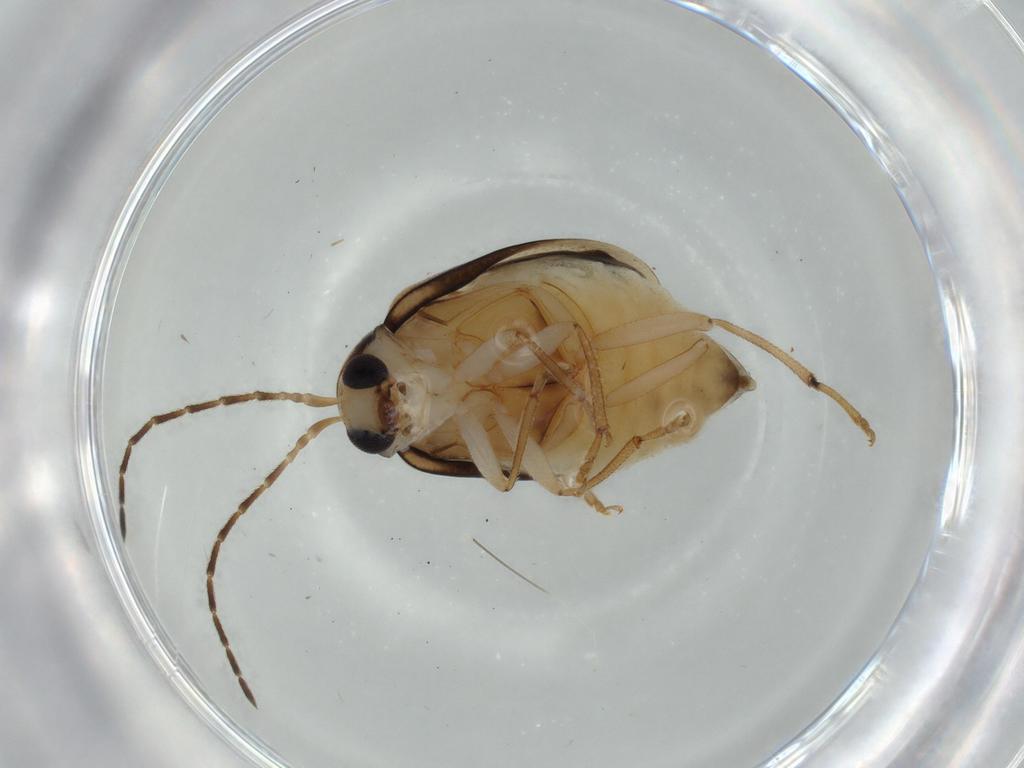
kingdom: Animalia
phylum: Arthropoda
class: Insecta
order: Coleoptera
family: Chrysomelidae
